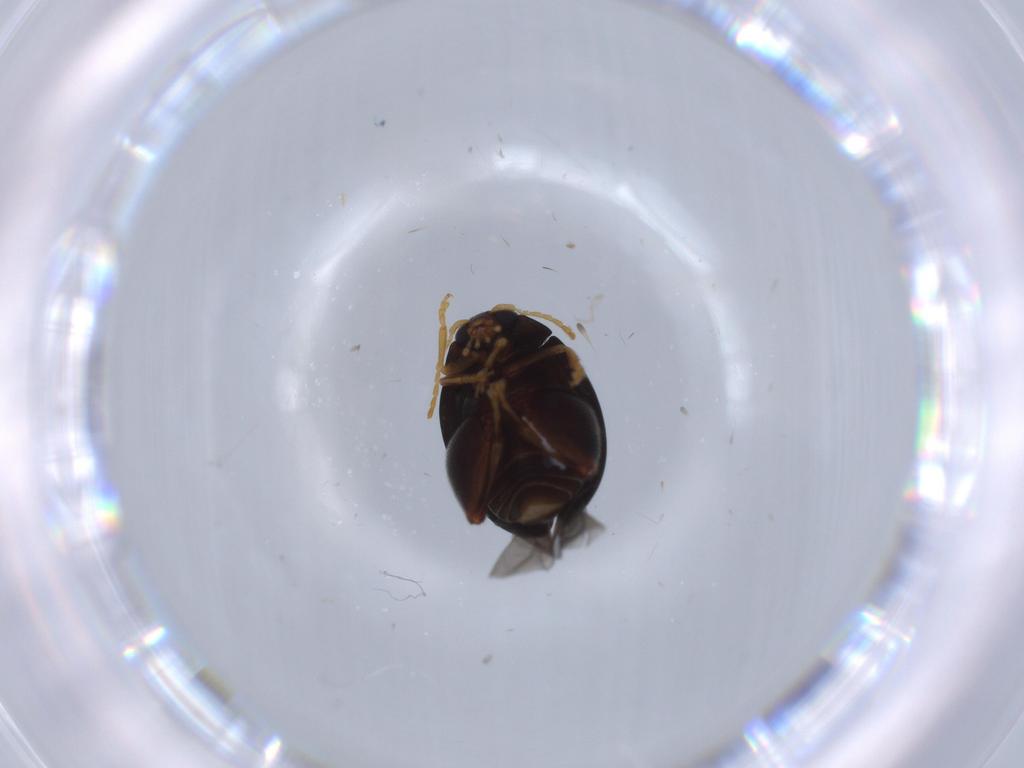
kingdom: Animalia
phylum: Arthropoda
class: Insecta
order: Coleoptera
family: Chrysomelidae
